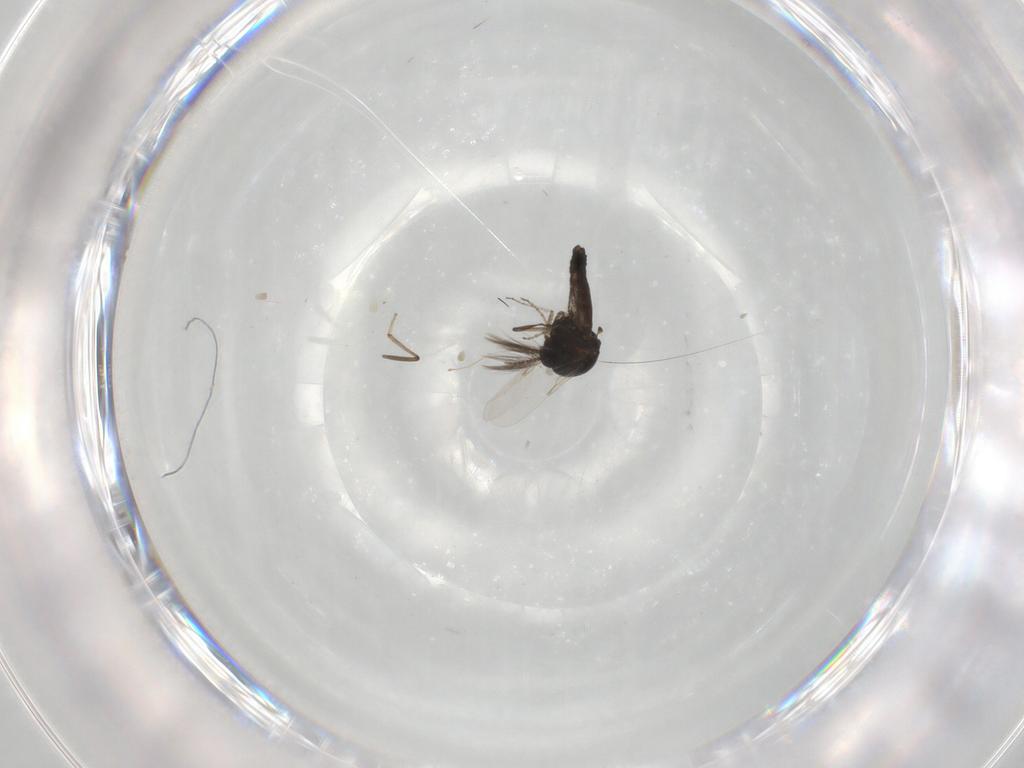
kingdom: Animalia
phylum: Arthropoda
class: Insecta
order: Diptera
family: Ceratopogonidae
